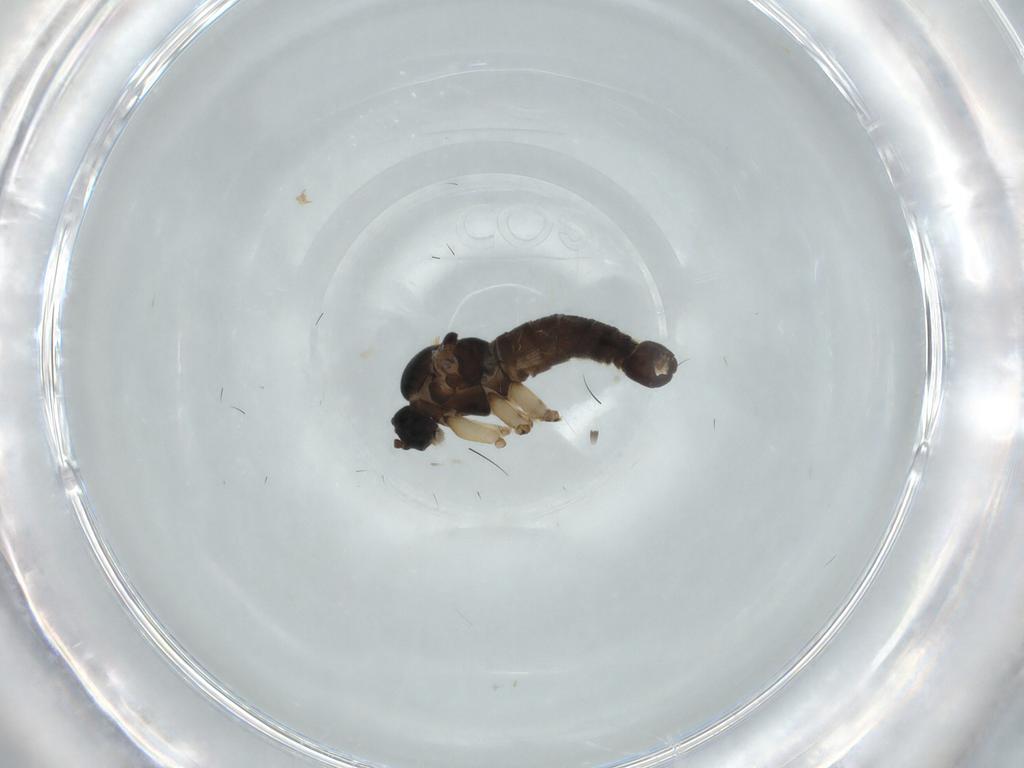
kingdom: Animalia
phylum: Arthropoda
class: Insecta
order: Diptera
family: Sciaridae
